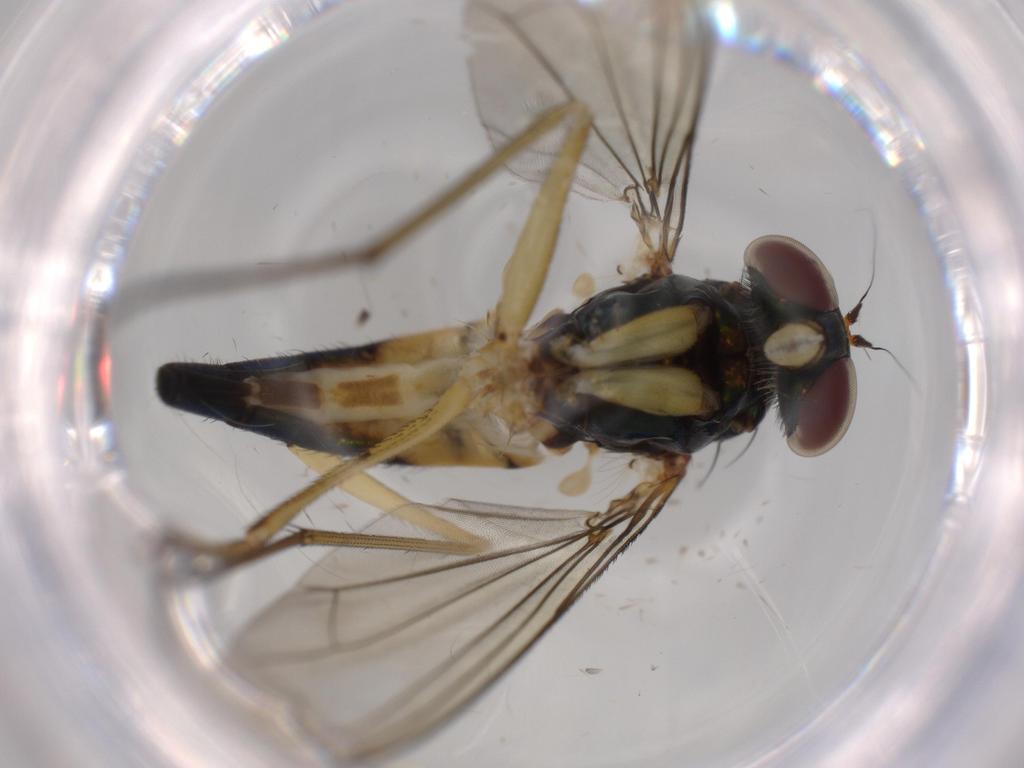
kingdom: Animalia
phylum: Arthropoda
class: Insecta
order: Diptera
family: Dolichopodidae
